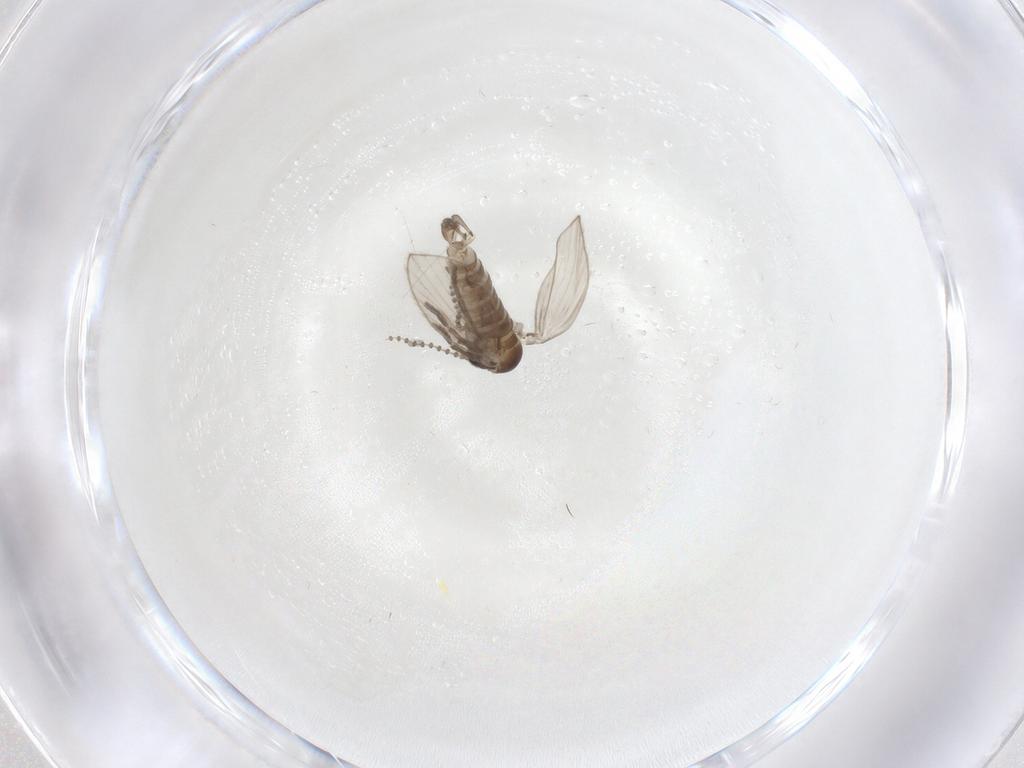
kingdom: Animalia
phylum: Arthropoda
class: Insecta
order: Diptera
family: Psychodidae
